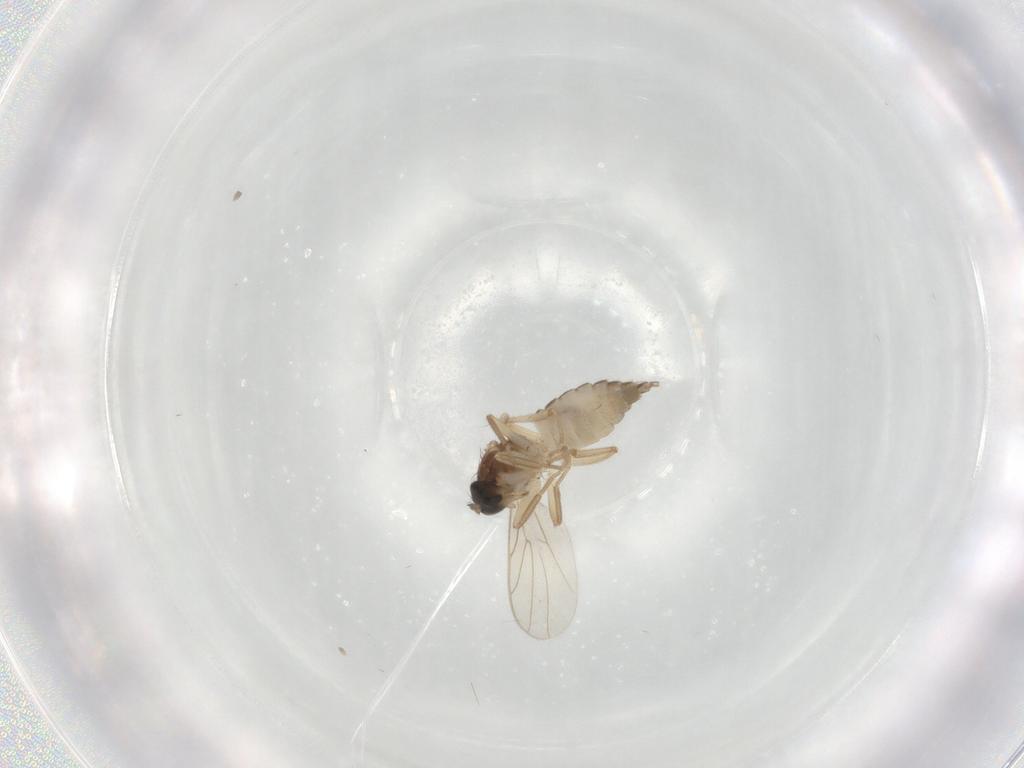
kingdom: Animalia
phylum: Arthropoda
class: Insecta
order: Diptera
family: Hybotidae
